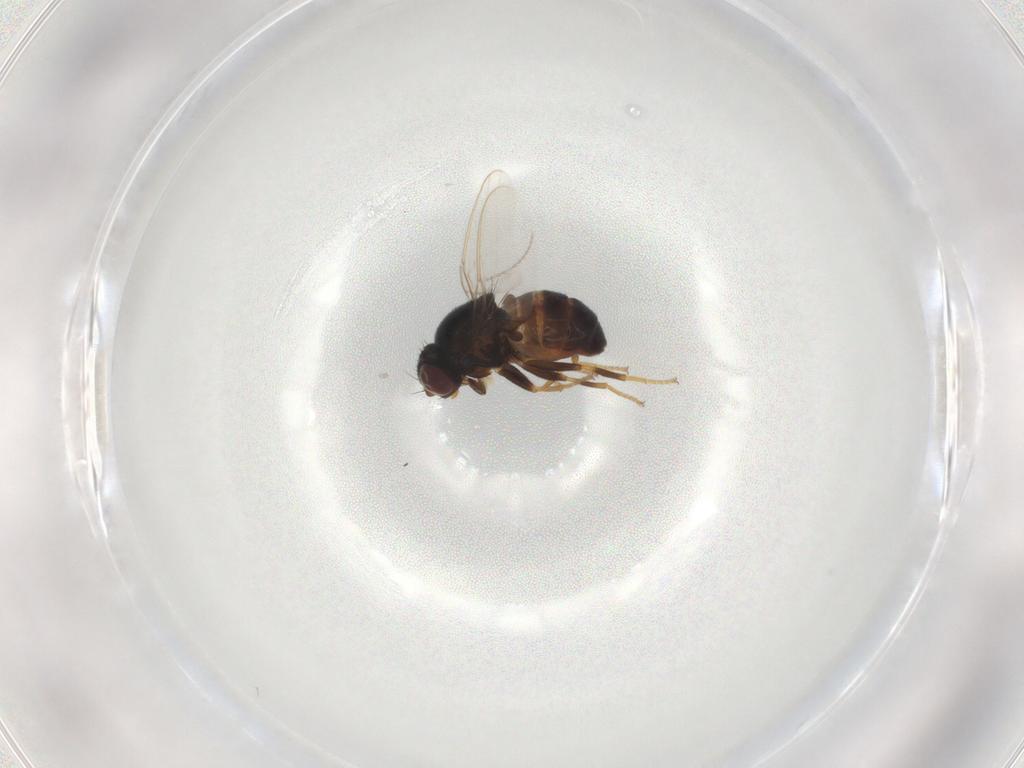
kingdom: Animalia
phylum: Arthropoda
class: Insecta
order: Diptera
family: Chloropidae
